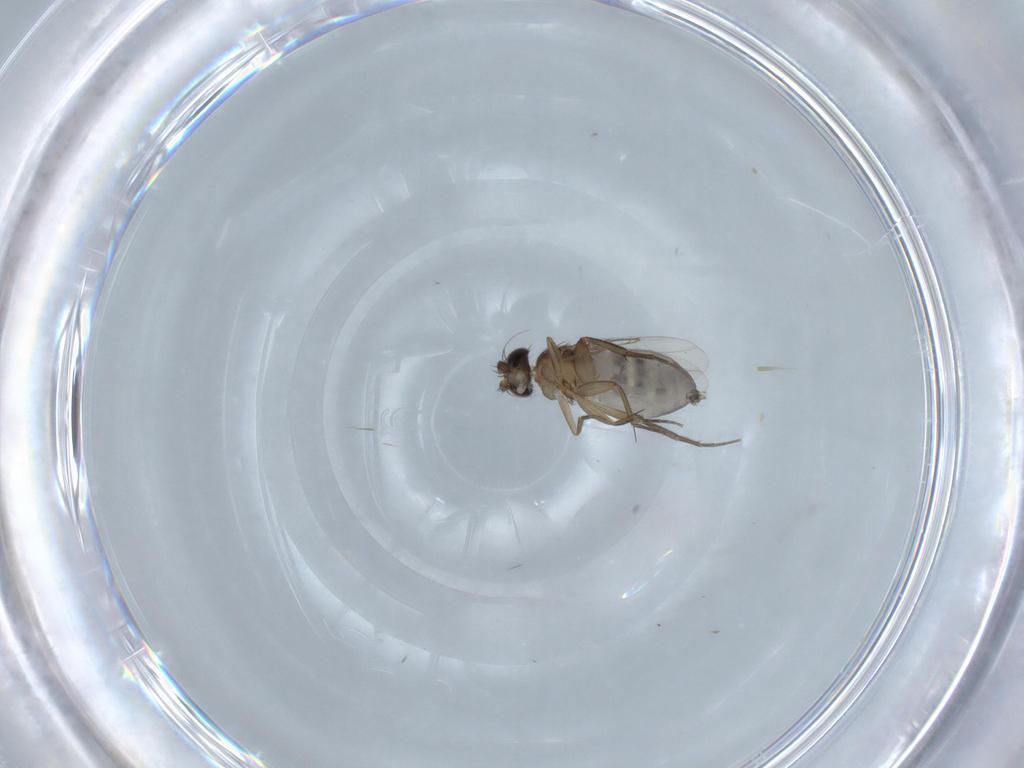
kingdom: Animalia
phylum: Arthropoda
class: Insecta
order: Diptera
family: Phoridae
